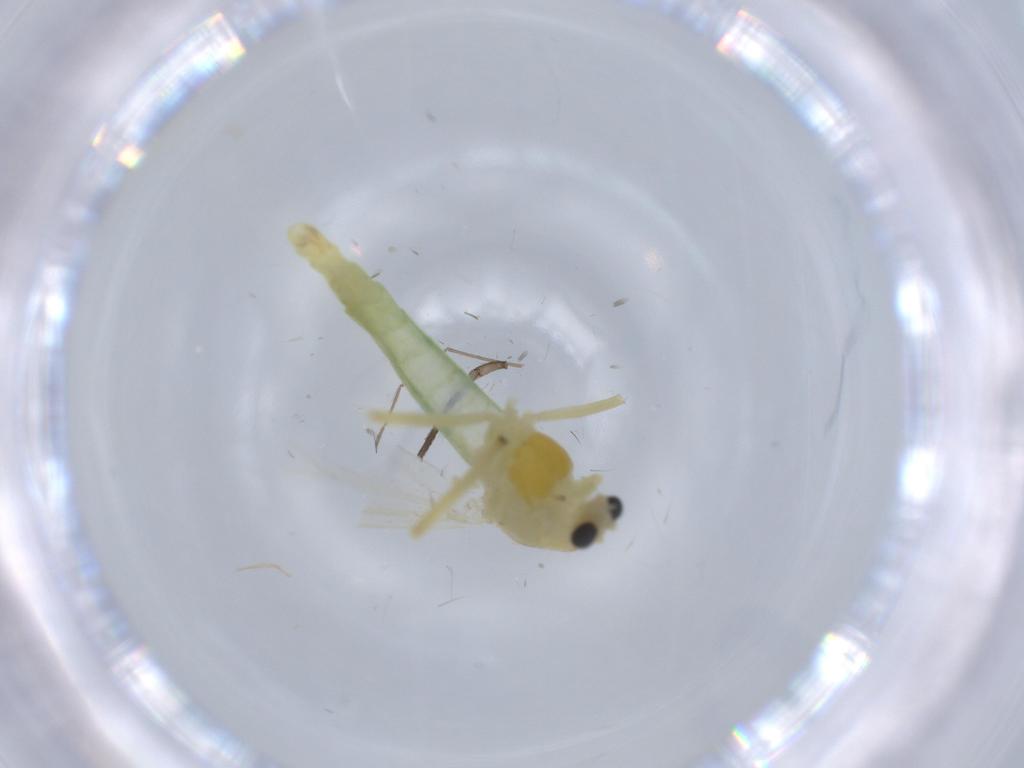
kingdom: Animalia
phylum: Arthropoda
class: Insecta
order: Diptera
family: Chironomidae
